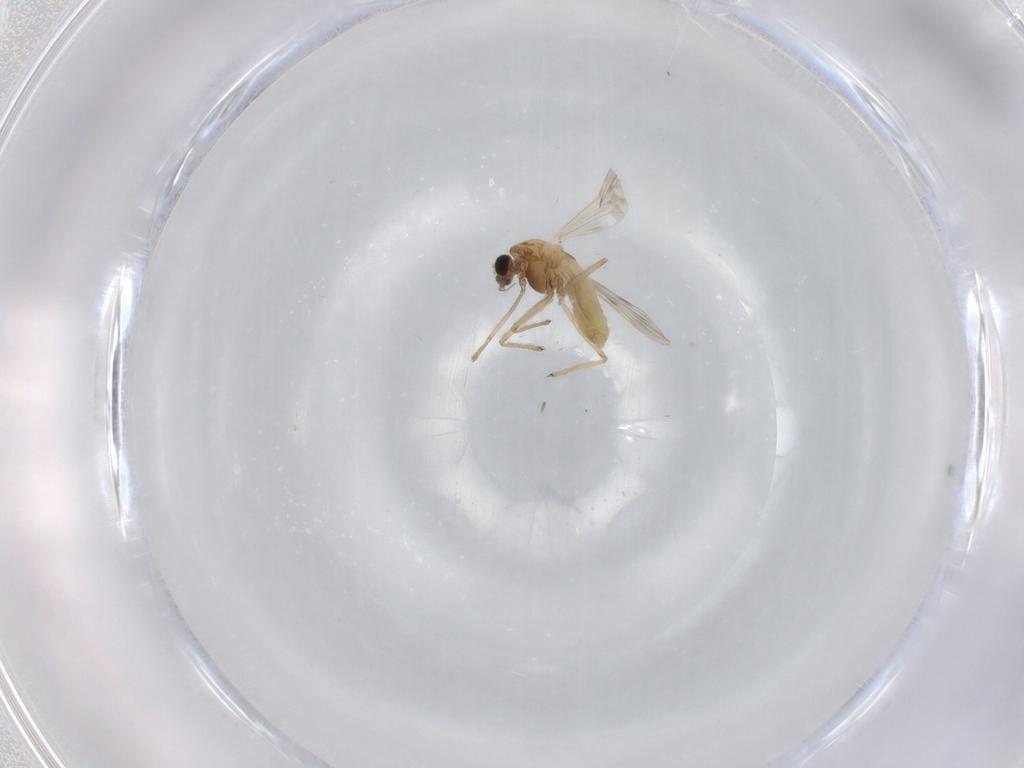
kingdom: Animalia
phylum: Arthropoda
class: Insecta
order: Diptera
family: Chironomidae
